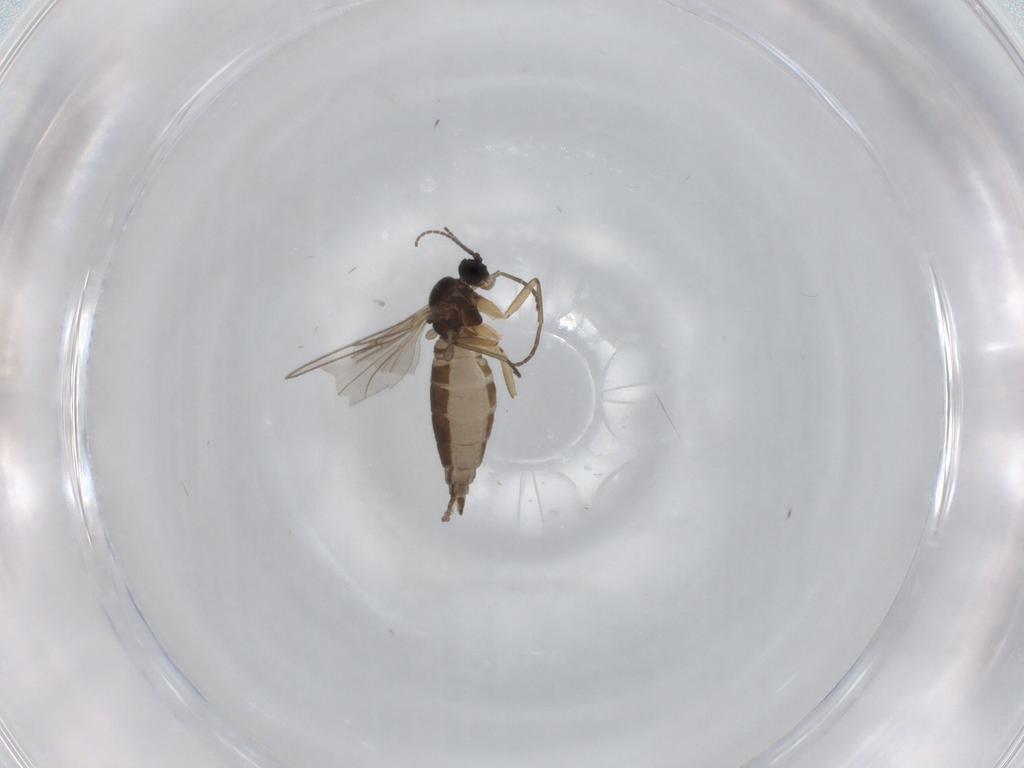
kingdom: Animalia
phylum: Arthropoda
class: Insecta
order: Diptera
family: Sciaridae
